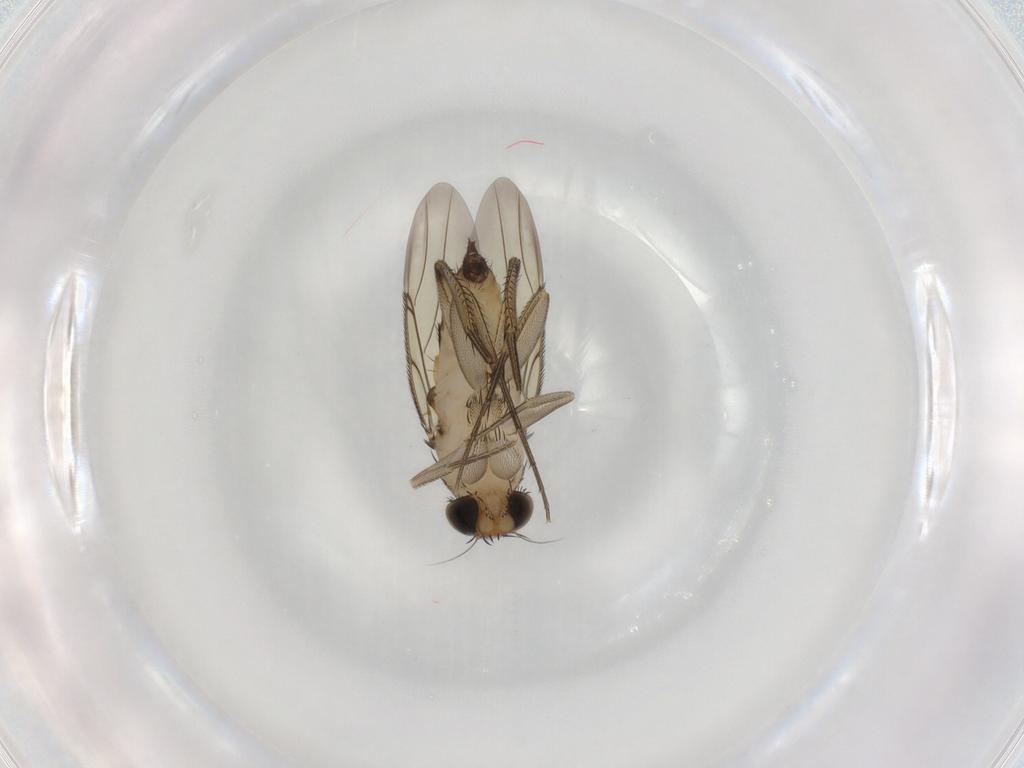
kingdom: Animalia
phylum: Arthropoda
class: Insecta
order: Diptera
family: Phoridae
